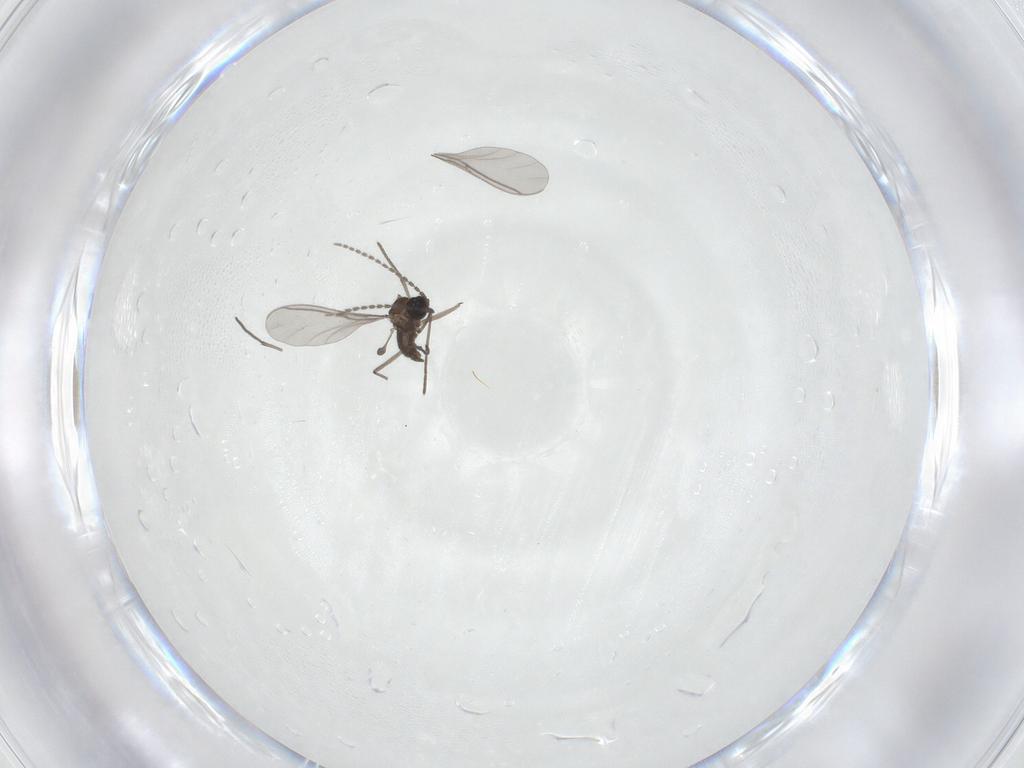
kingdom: Animalia
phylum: Arthropoda
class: Insecta
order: Diptera
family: Sciaridae
